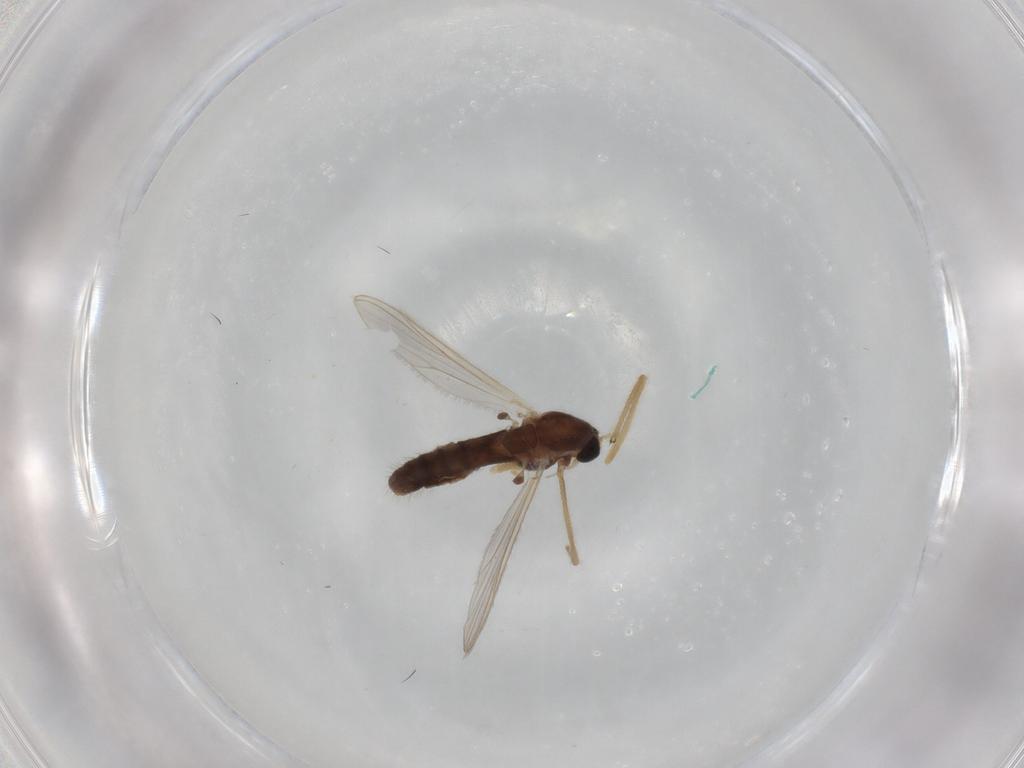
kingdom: Animalia
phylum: Arthropoda
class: Insecta
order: Diptera
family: Chironomidae
